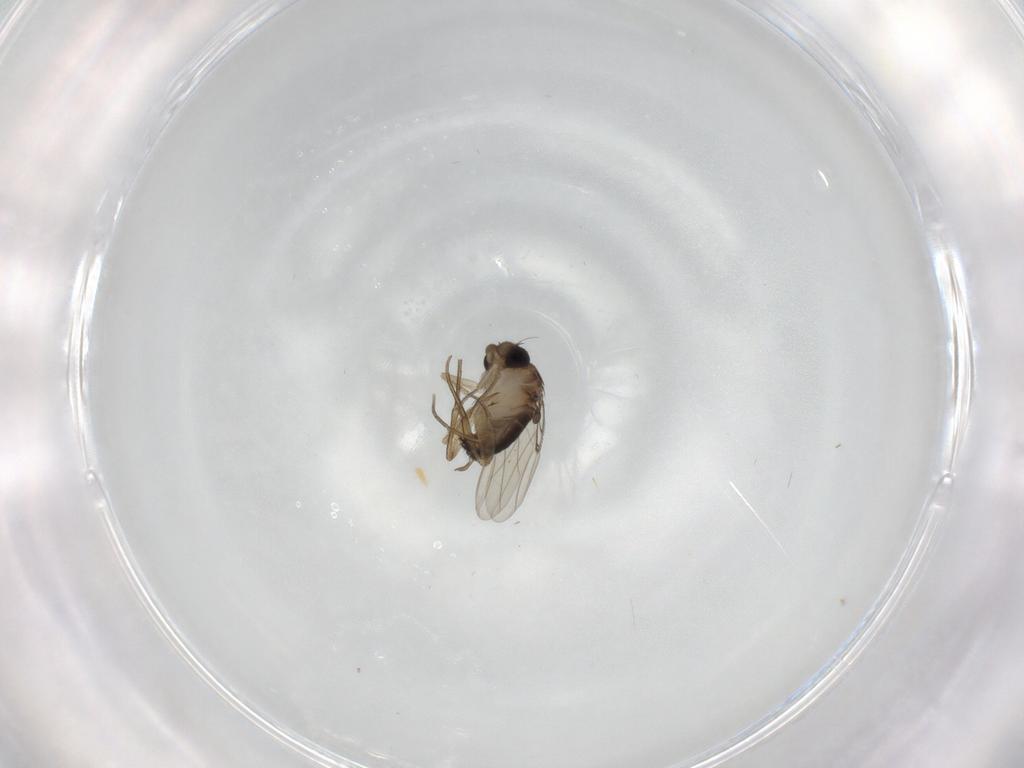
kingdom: Animalia
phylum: Arthropoda
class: Insecta
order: Diptera
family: Phoridae
